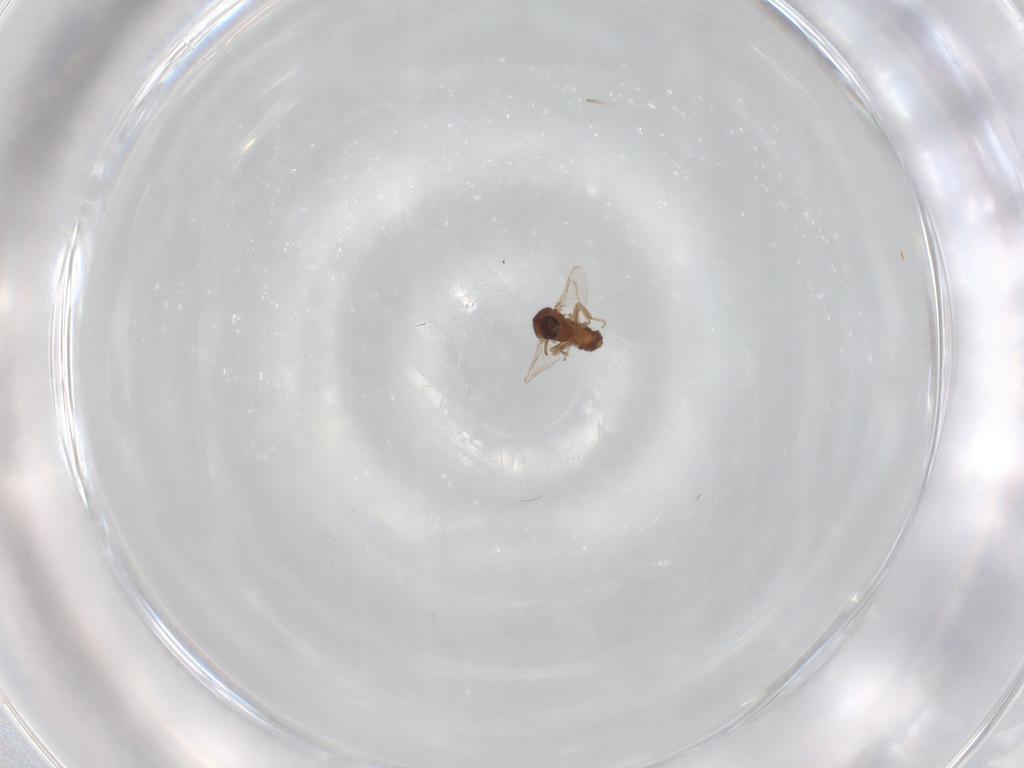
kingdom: Animalia
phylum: Arthropoda
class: Insecta
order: Diptera
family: Ceratopogonidae
